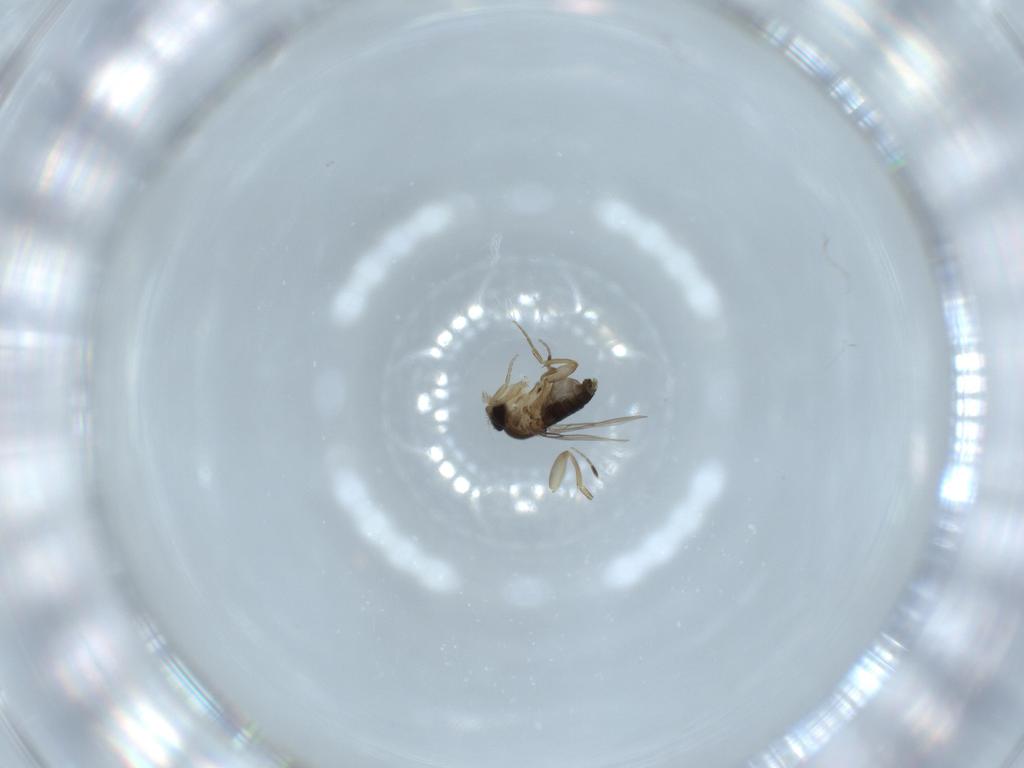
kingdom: Animalia
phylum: Arthropoda
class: Insecta
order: Diptera
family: Phoridae
